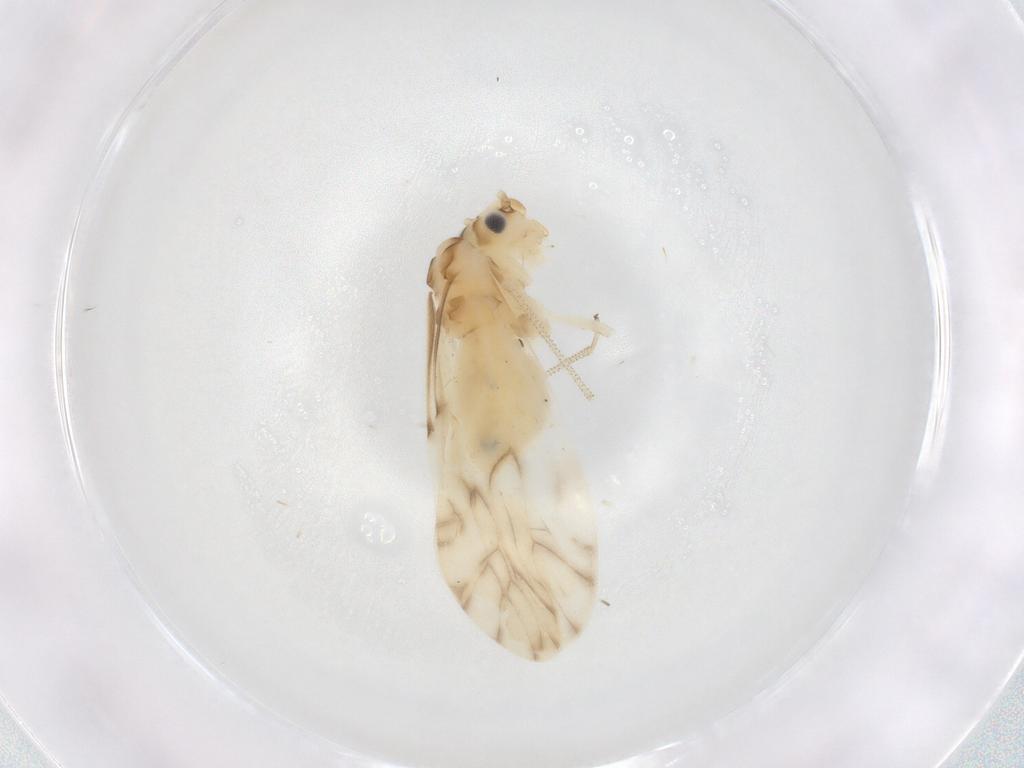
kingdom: Animalia
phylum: Arthropoda
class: Insecta
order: Psocodea
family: Caeciliusidae
